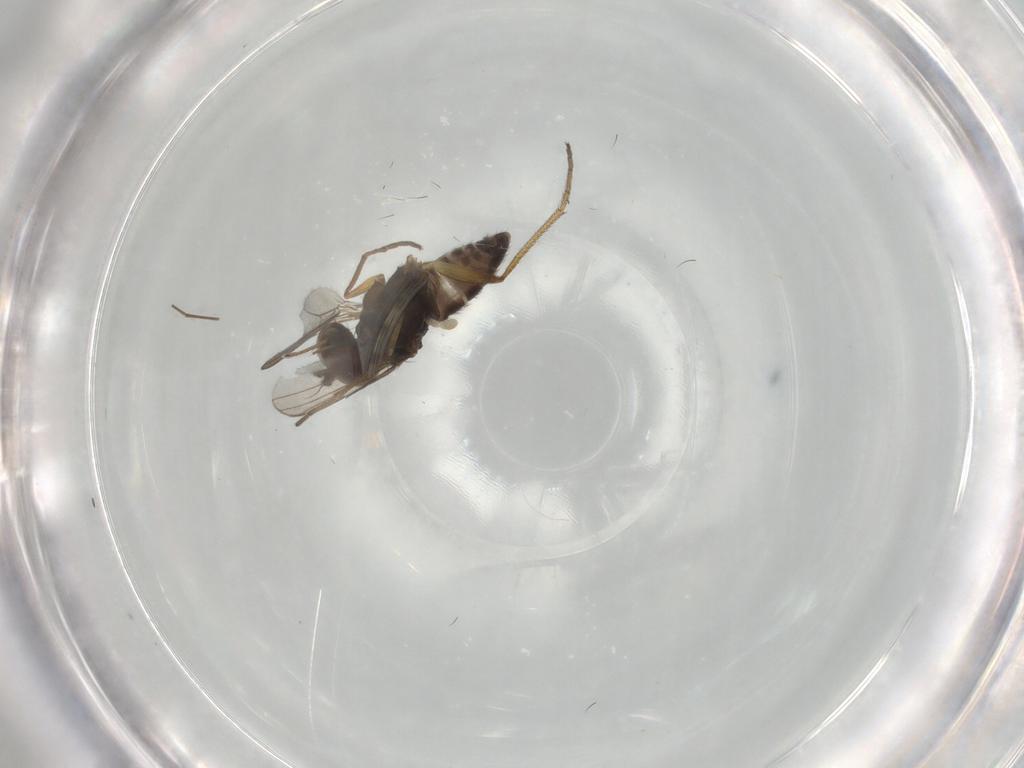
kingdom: Animalia
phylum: Arthropoda
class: Insecta
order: Diptera
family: Dolichopodidae
